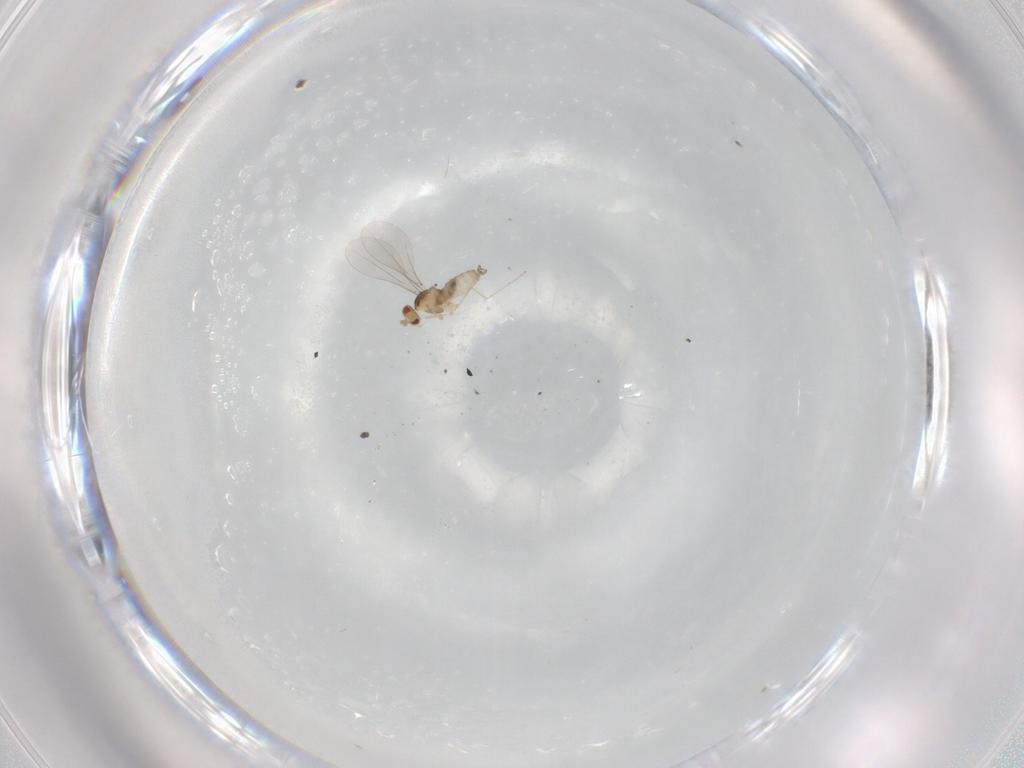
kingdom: Animalia
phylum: Arthropoda
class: Insecta
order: Diptera
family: Cecidomyiidae
